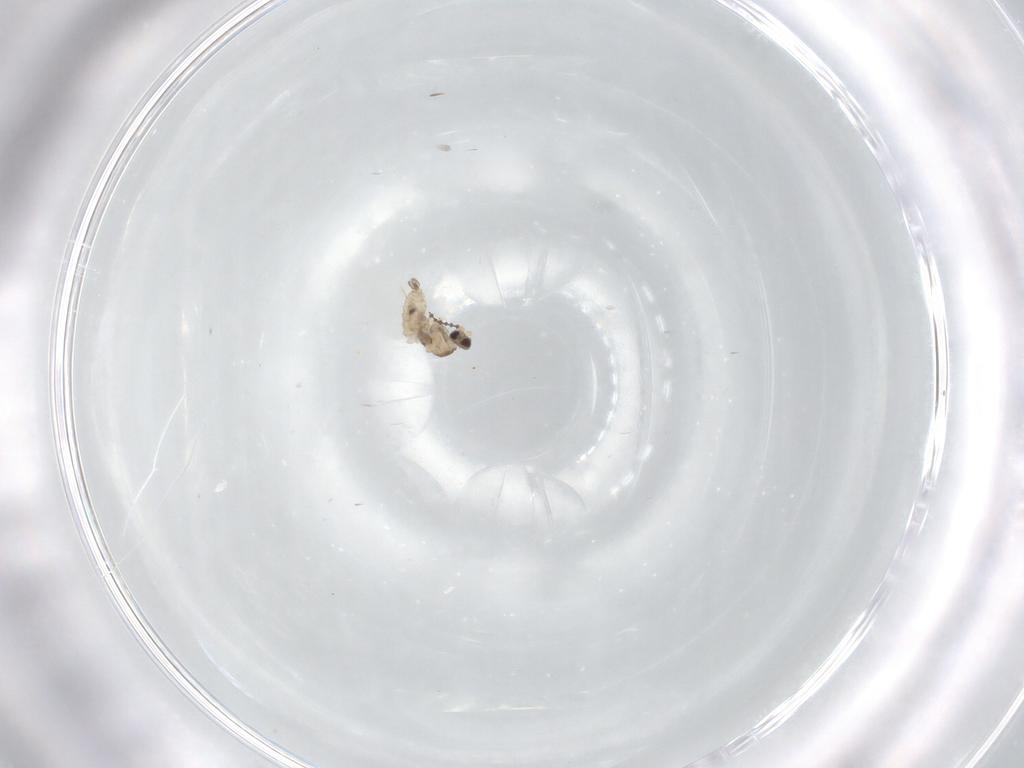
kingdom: Animalia
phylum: Arthropoda
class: Insecta
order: Diptera
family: Cecidomyiidae
